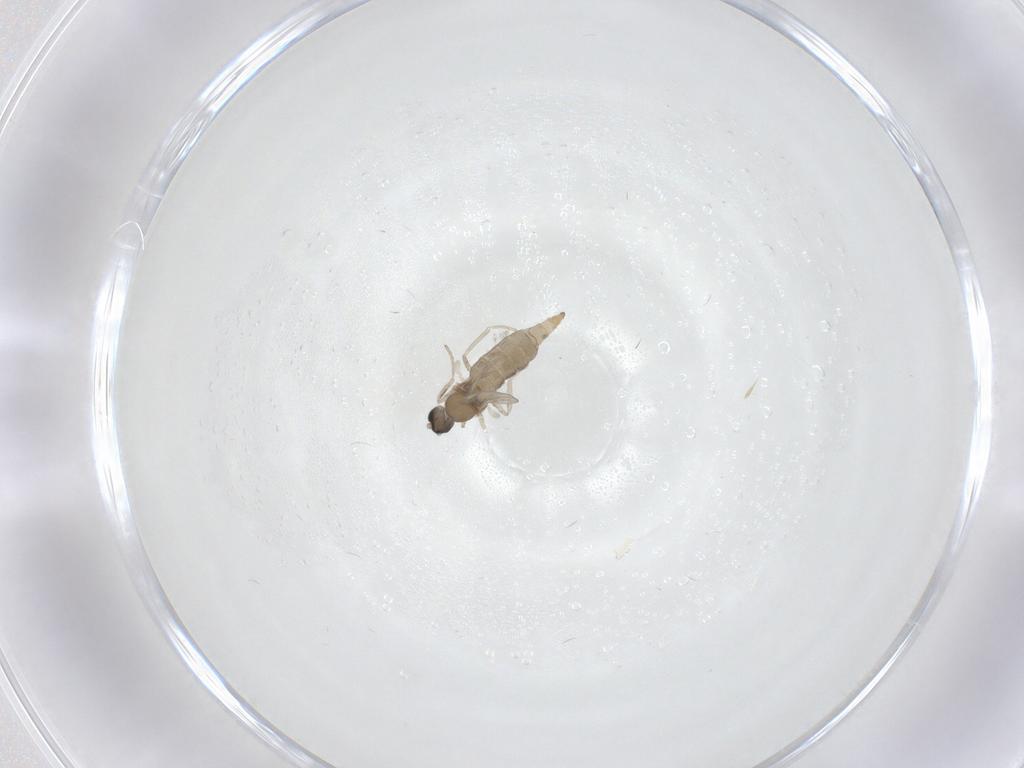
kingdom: Animalia
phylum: Arthropoda
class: Insecta
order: Diptera
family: Cecidomyiidae
